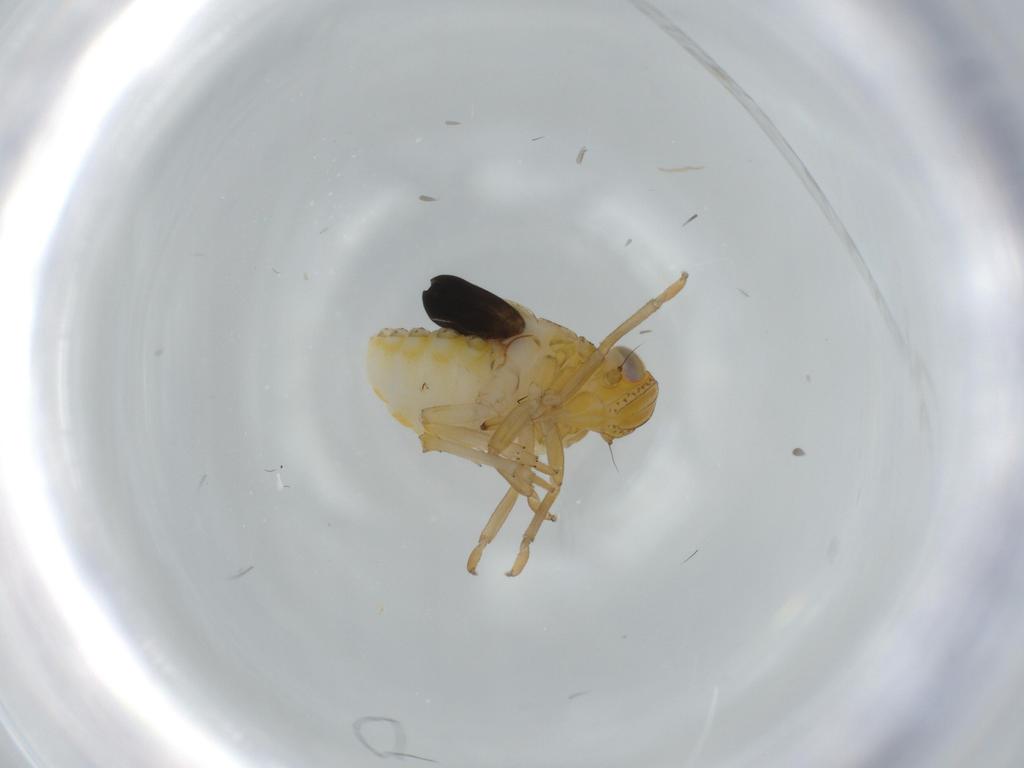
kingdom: Animalia
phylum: Arthropoda
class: Insecta
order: Hemiptera
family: Issidae
